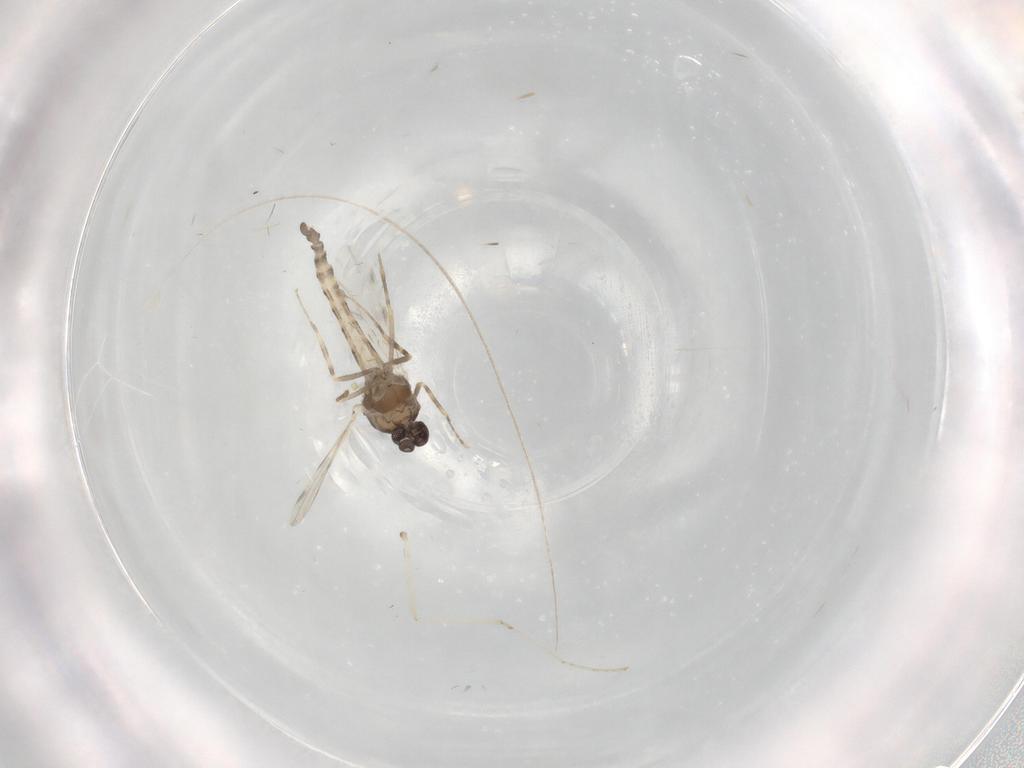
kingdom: Animalia
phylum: Arthropoda
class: Insecta
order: Diptera
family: Ceratopogonidae
